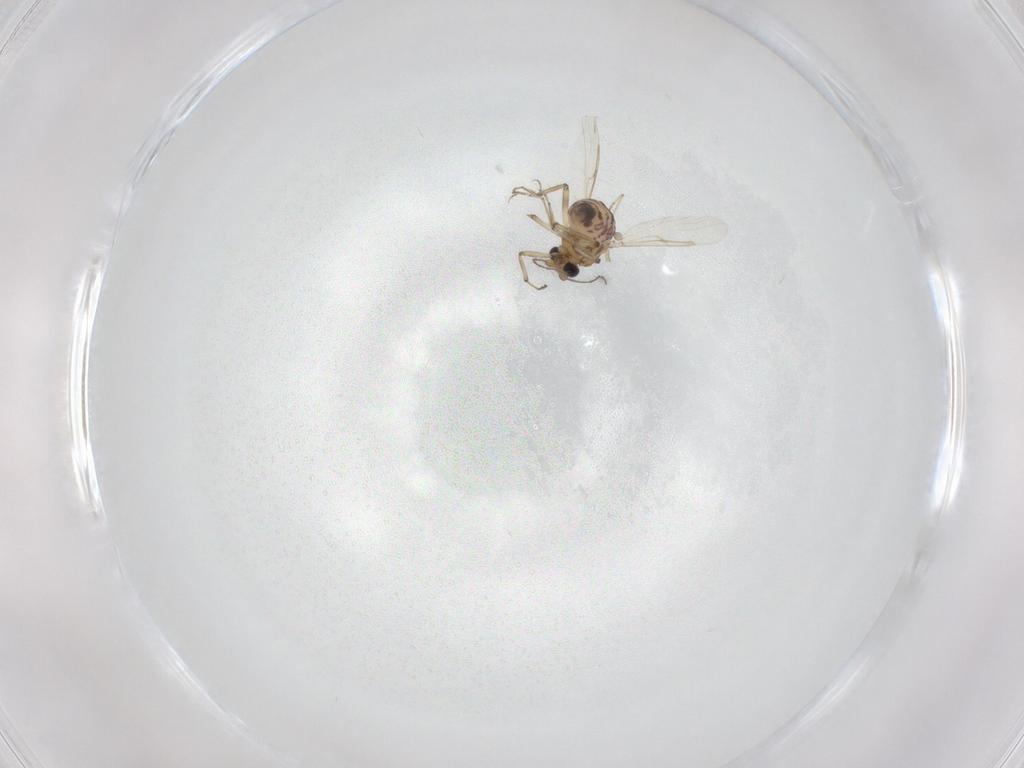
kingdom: Animalia
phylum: Arthropoda
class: Insecta
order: Diptera
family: Ceratopogonidae
